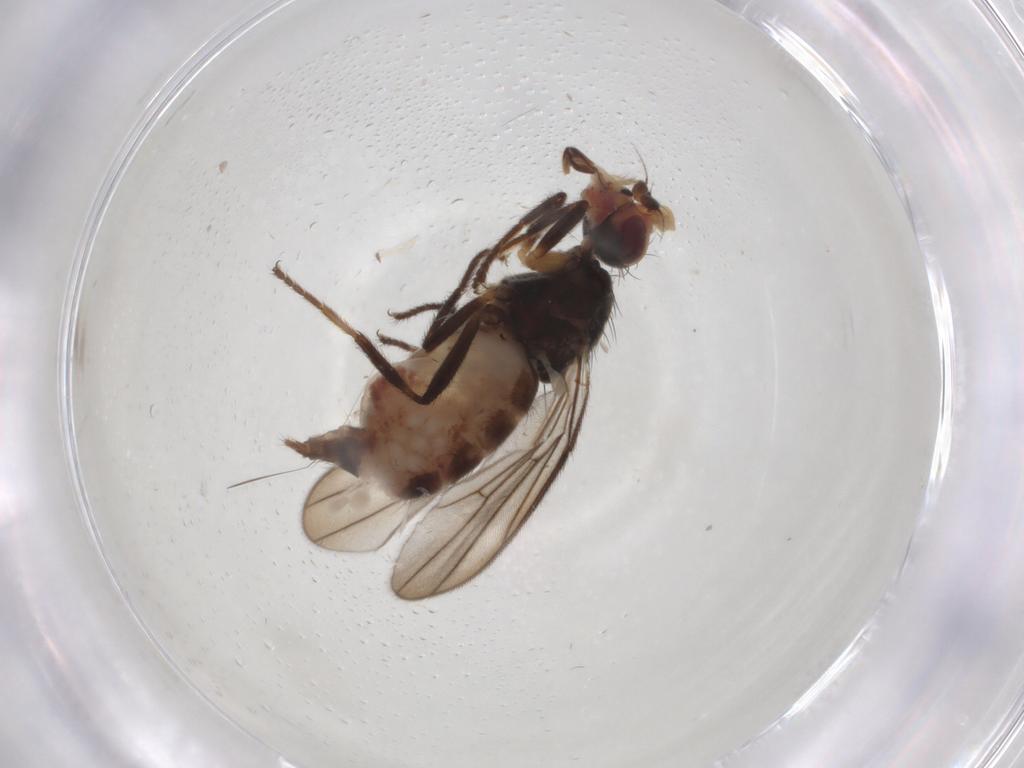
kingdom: Animalia
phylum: Arthropoda
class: Insecta
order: Diptera
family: Chloropidae
